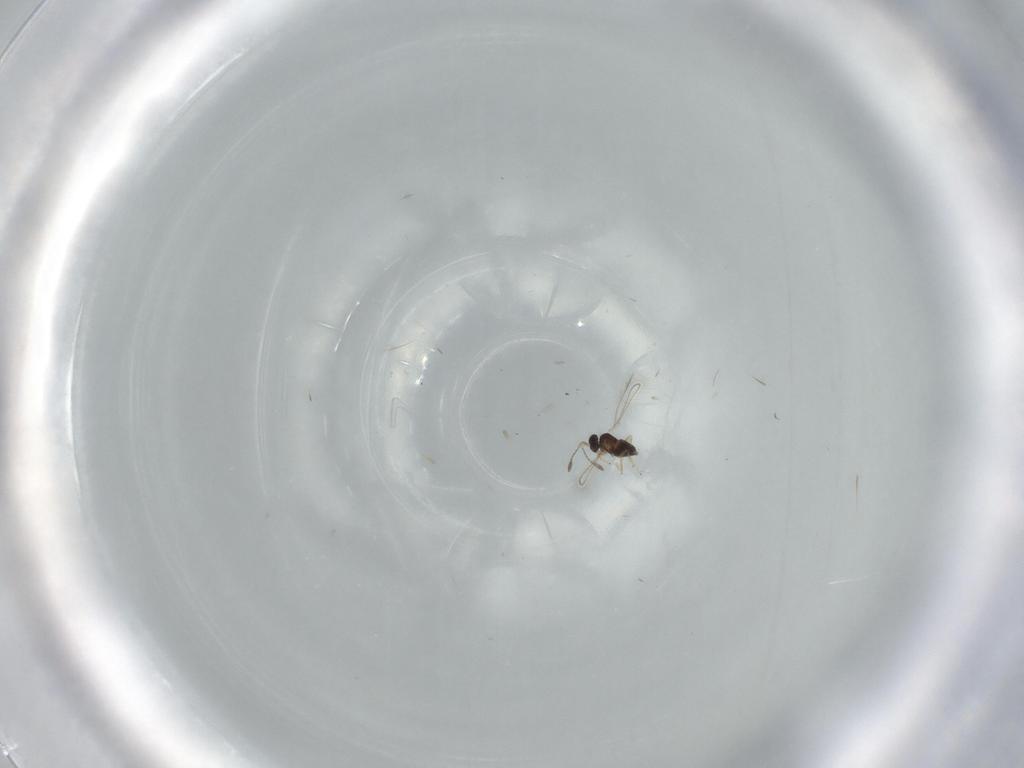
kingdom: Animalia
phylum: Arthropoda
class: Insecta
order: Hymenoptera
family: Mymaridae
